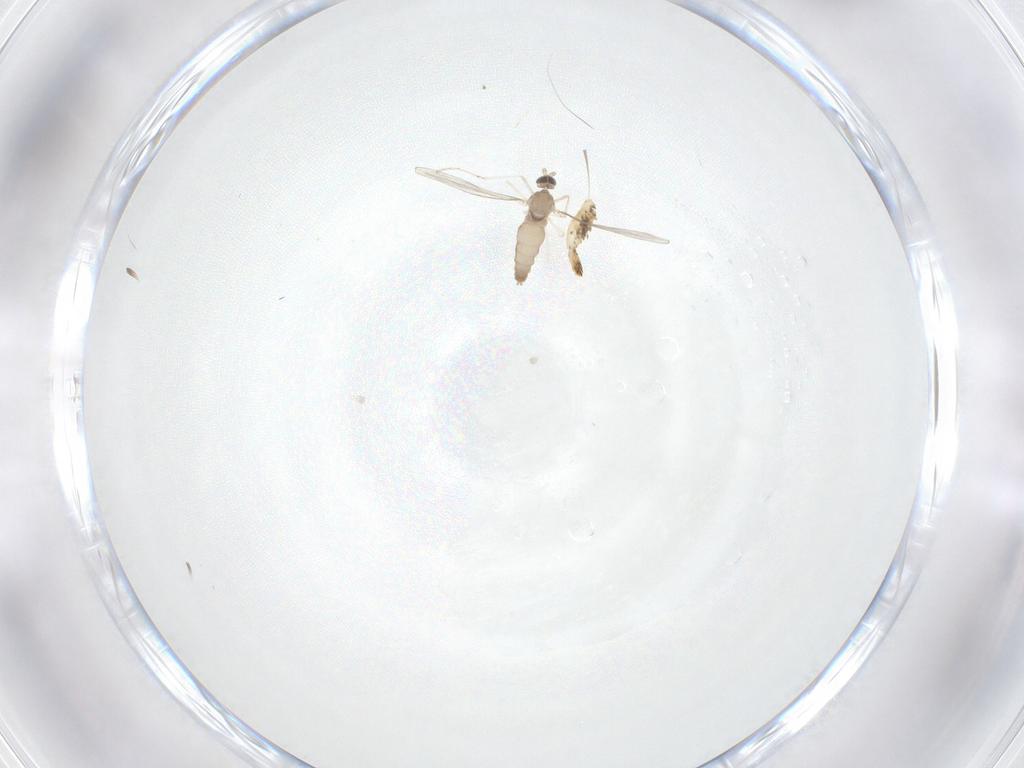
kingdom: Animalia
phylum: Arthropoda
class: Insecta
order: Diptera
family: Cecidomyiidae
